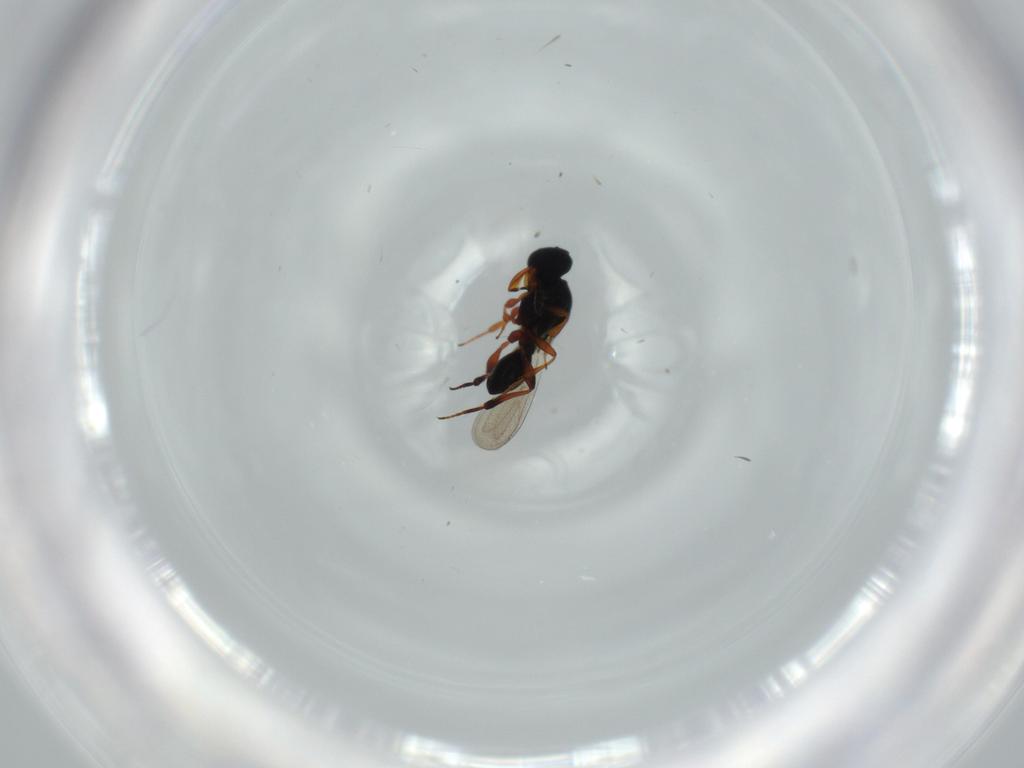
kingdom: Animalia
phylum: Arthropoda
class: Insecta
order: Hymenoptera
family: Platygastridae
